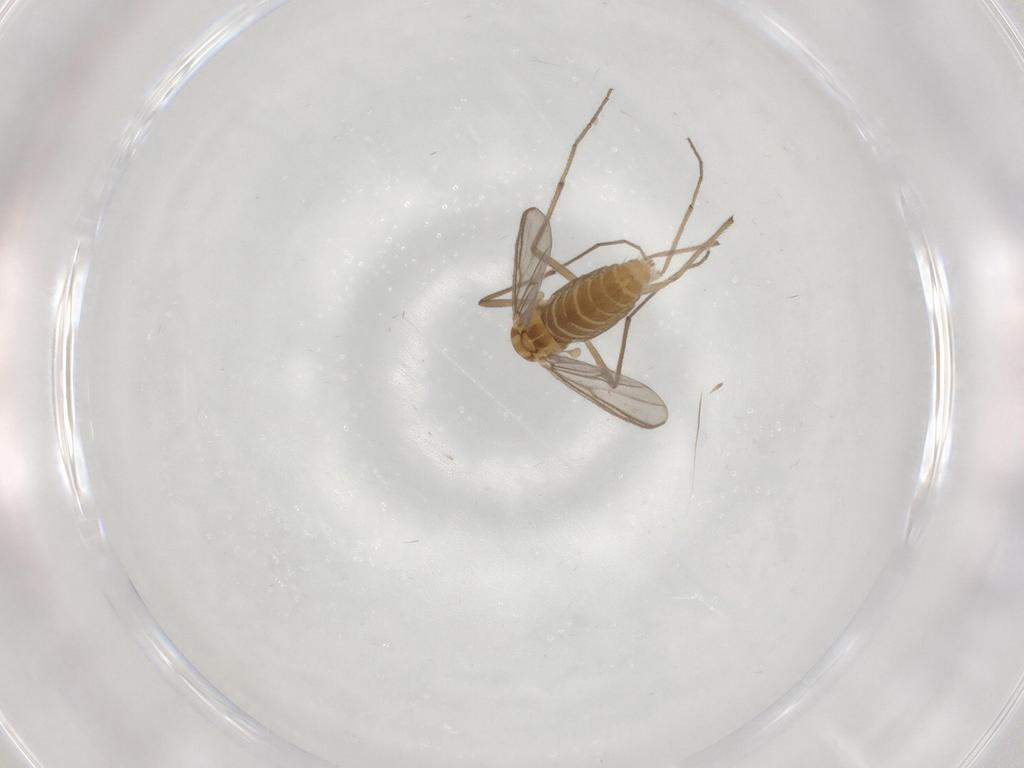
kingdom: Animalia
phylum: Arthropoda
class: Insecta
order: Diptera
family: Chironomidae
